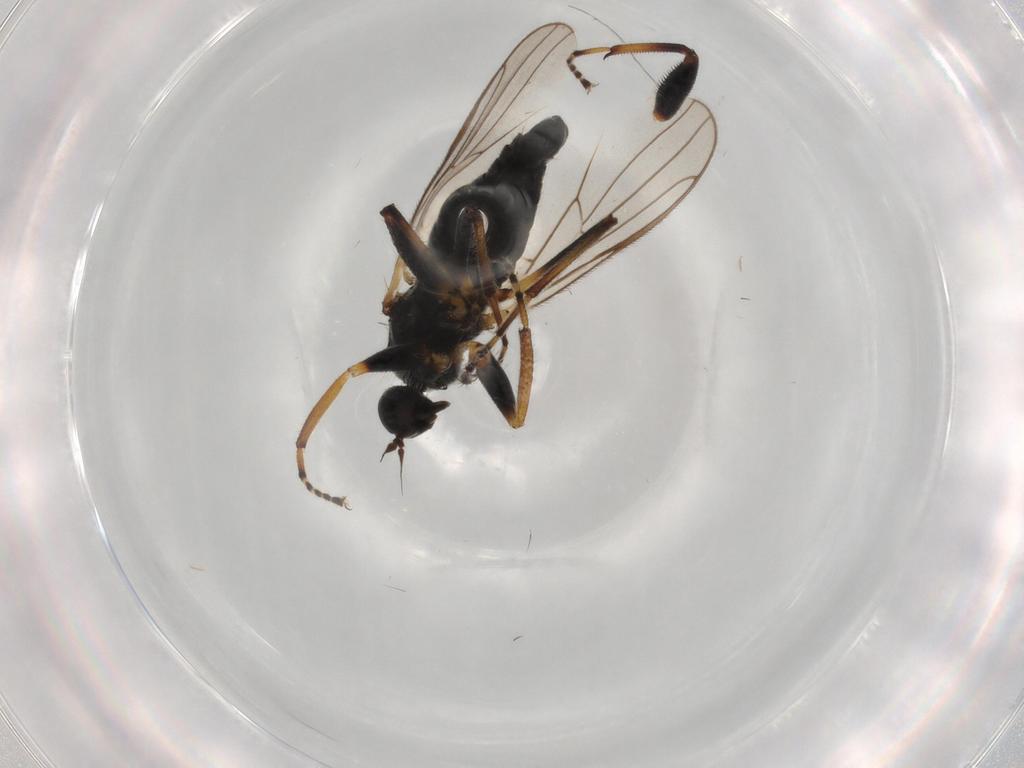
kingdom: Animalia
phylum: Arthropoda
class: Insecta
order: Diptera
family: Hybotidae
